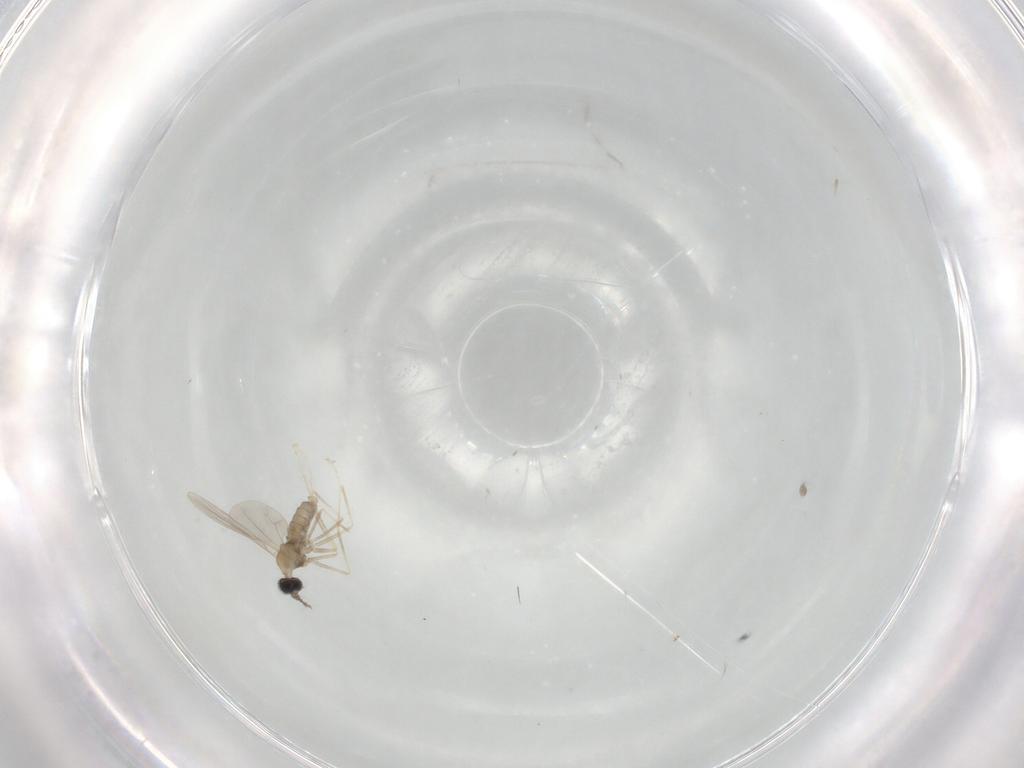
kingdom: Animalia
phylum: Arthropoda
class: Insecta
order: Diptera
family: Cecidomyiidae
